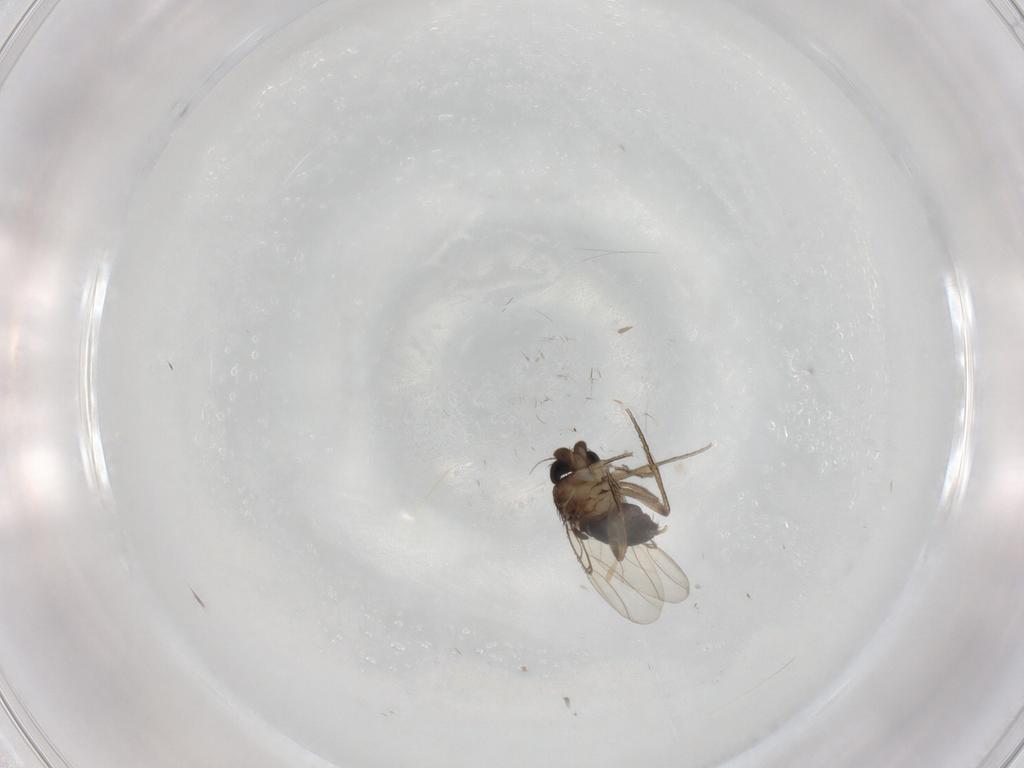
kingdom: Animalia
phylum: Arthropoda
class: Insecta
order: Diptera
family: Phoridae
